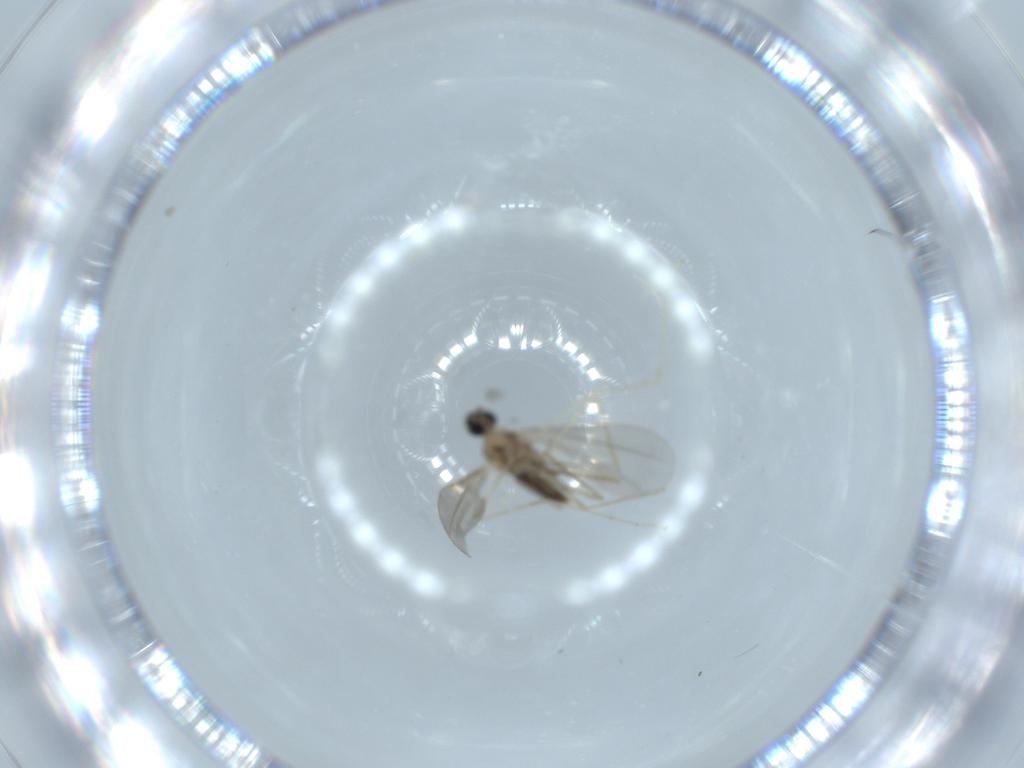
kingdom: Animalia
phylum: Arthropoda
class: Insecta
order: Diptera
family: Cecidomyiidae
